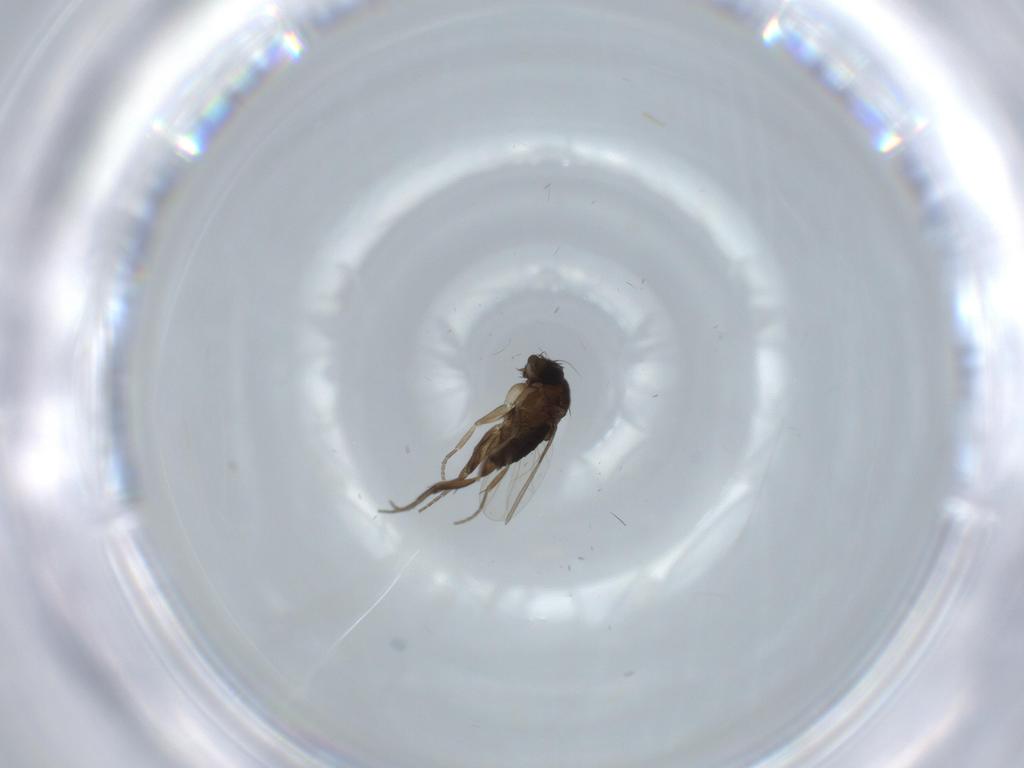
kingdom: Animalia
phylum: Arthropoda
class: Insecta
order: Diptera
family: Phoridae
